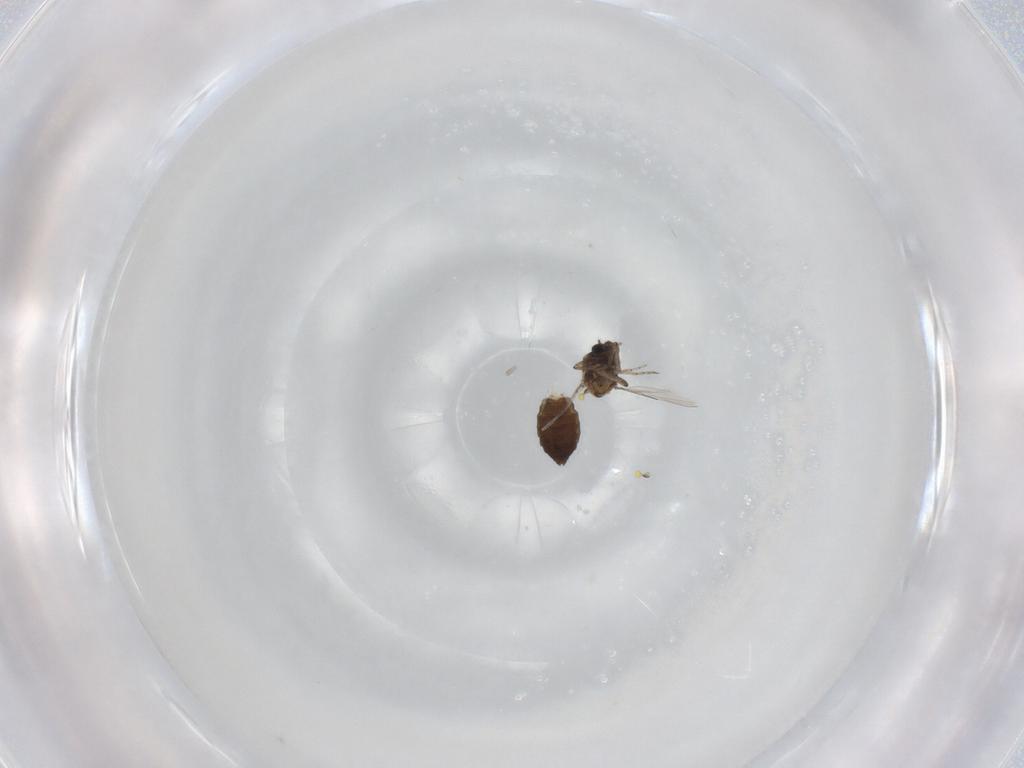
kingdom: Animalia
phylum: Arthropoda
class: Insecta
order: Diptera
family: Ceratopogonidae
